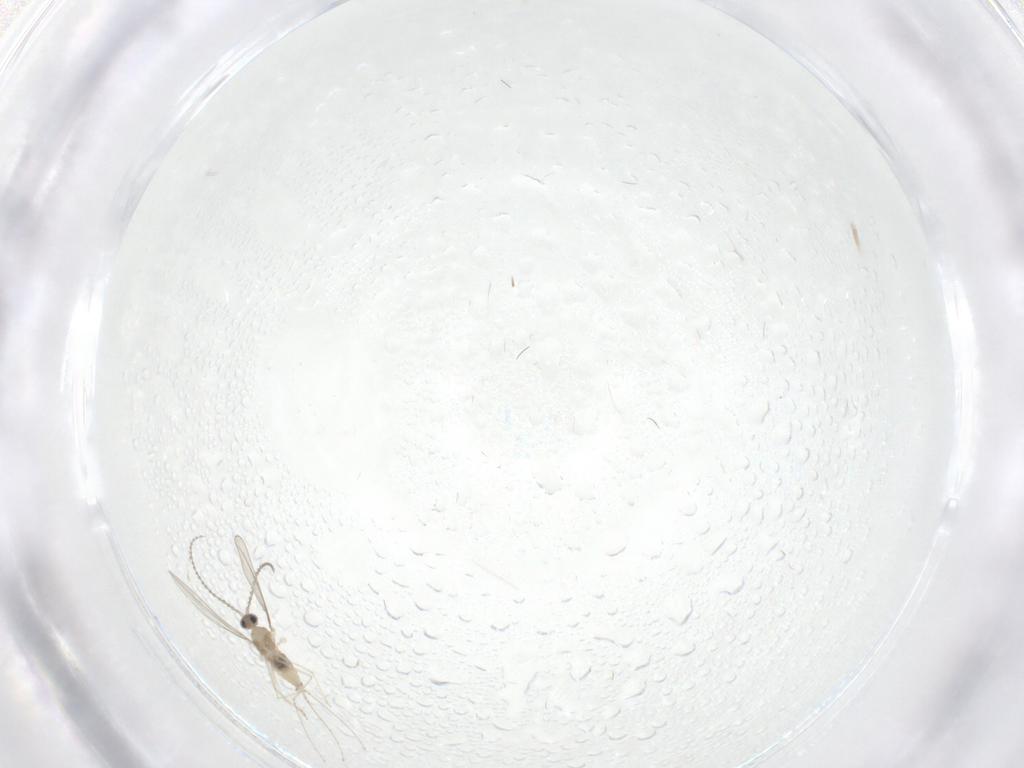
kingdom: Animalia
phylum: Arthropoda
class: Insecta
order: Diptera
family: Cecidomyiidae
